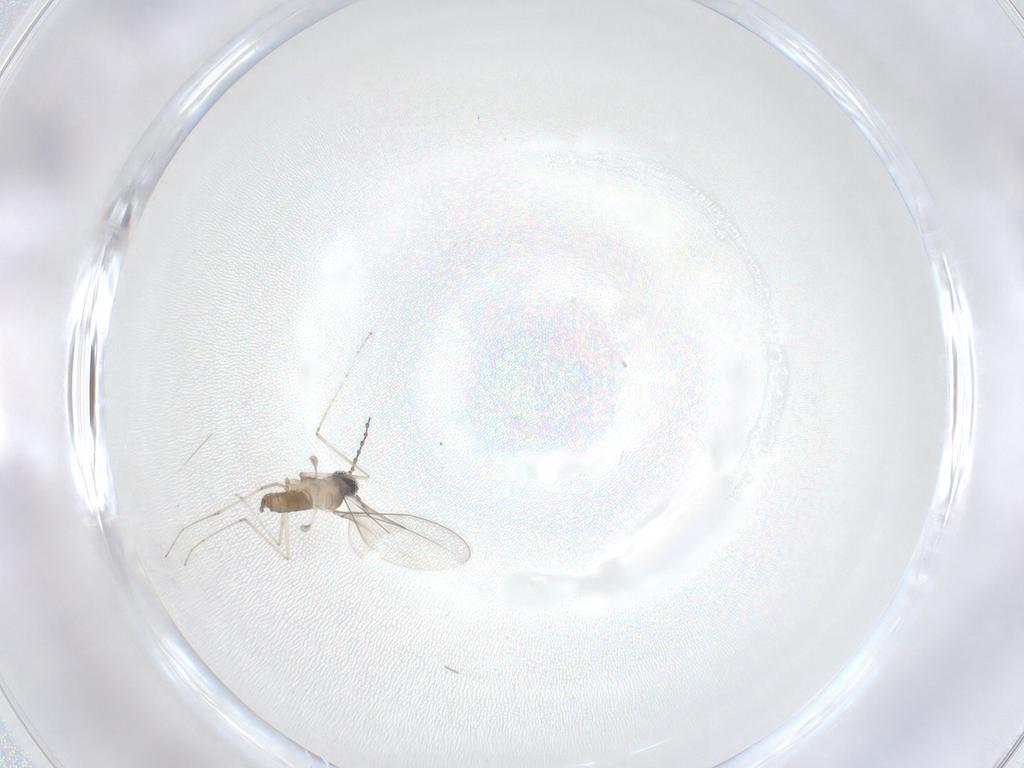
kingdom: Animalia
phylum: Arthropoda
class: Insecta
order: Diptera
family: Cecidomyiidae
